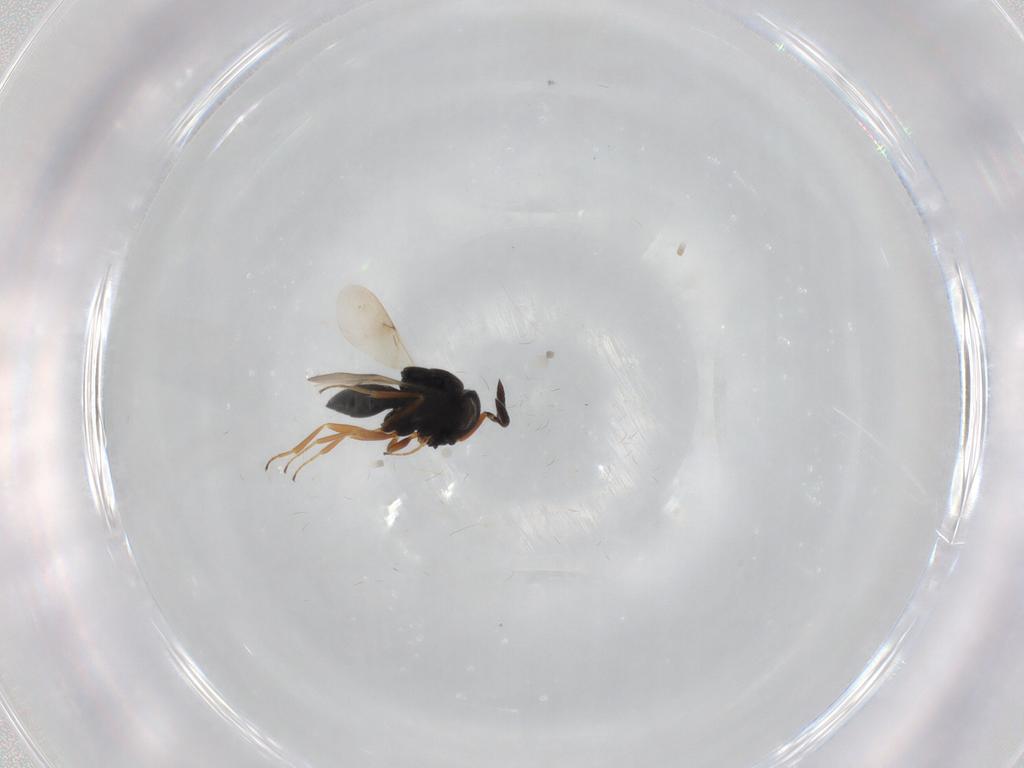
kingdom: Animalia
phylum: Arthropoda
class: Insecta
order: Hymenoptera
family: Scelionidae
